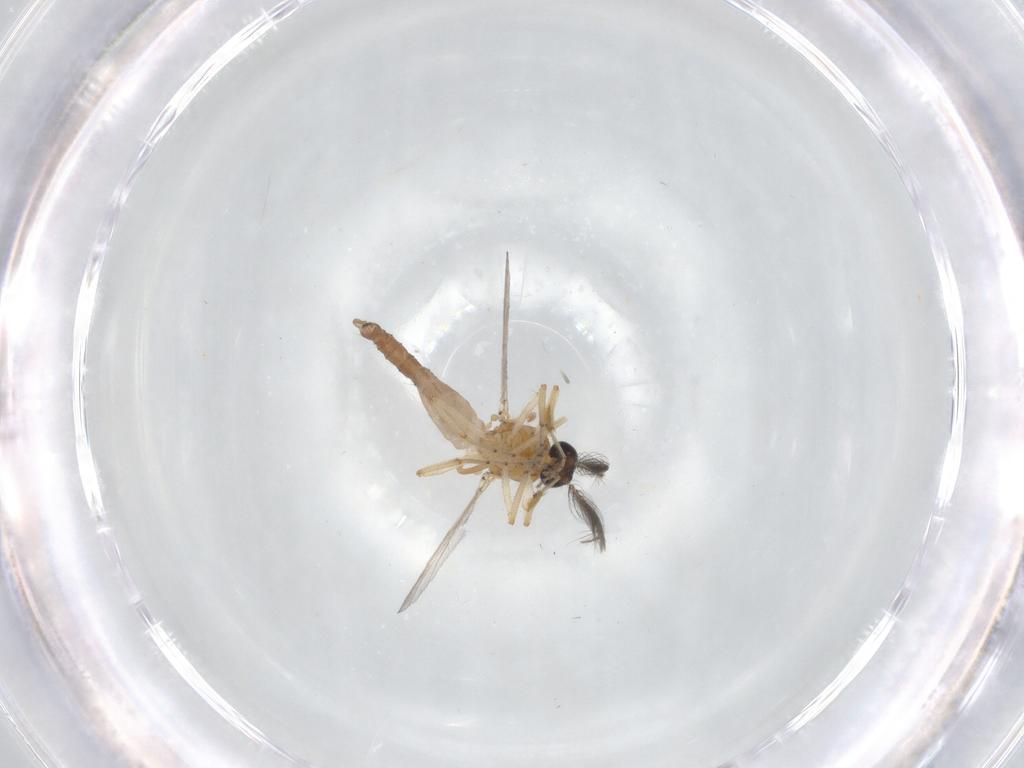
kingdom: Animalia
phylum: Arthropoda
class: Insecta
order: Diptera
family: Ceratopogonidae
